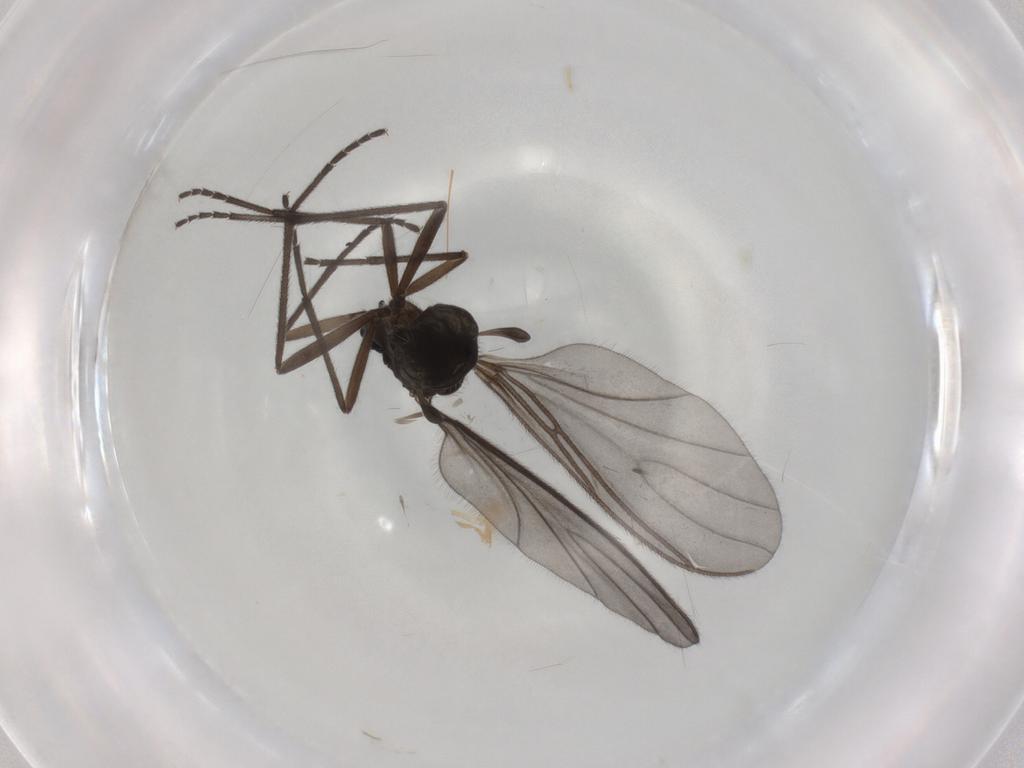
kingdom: Animalia
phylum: Arthropoda
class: Insecta
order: Diptera
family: Sciaridae
